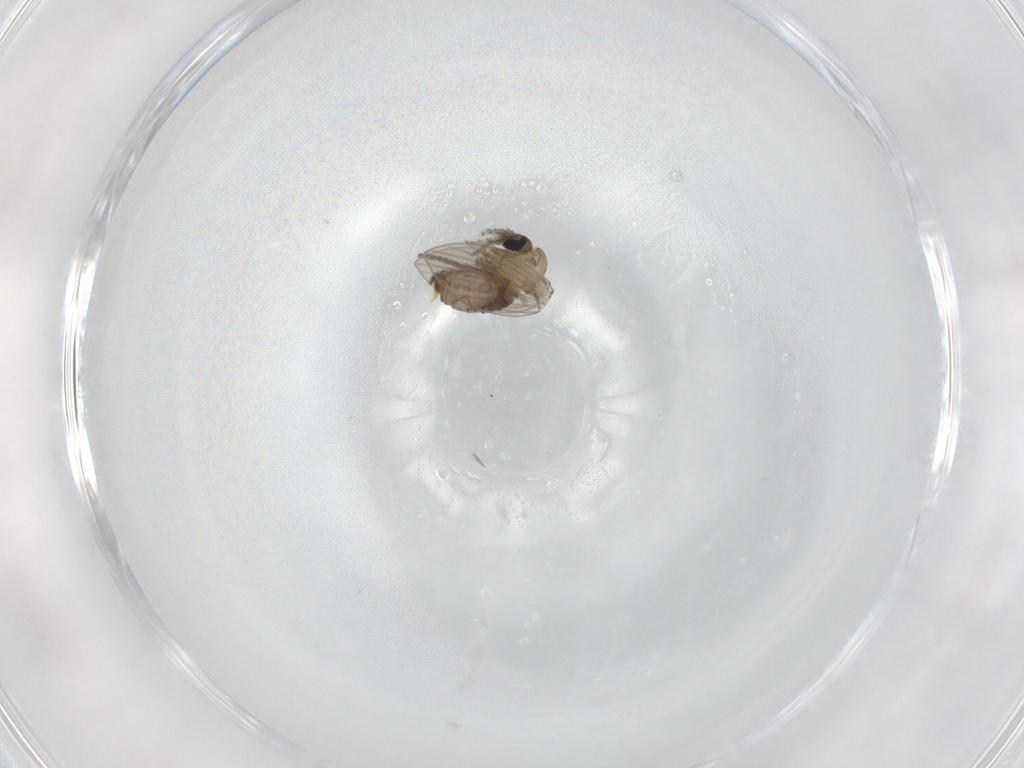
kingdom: Animalia
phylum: Arthropoda
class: Insecta
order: Diptera
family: Psychodidae
